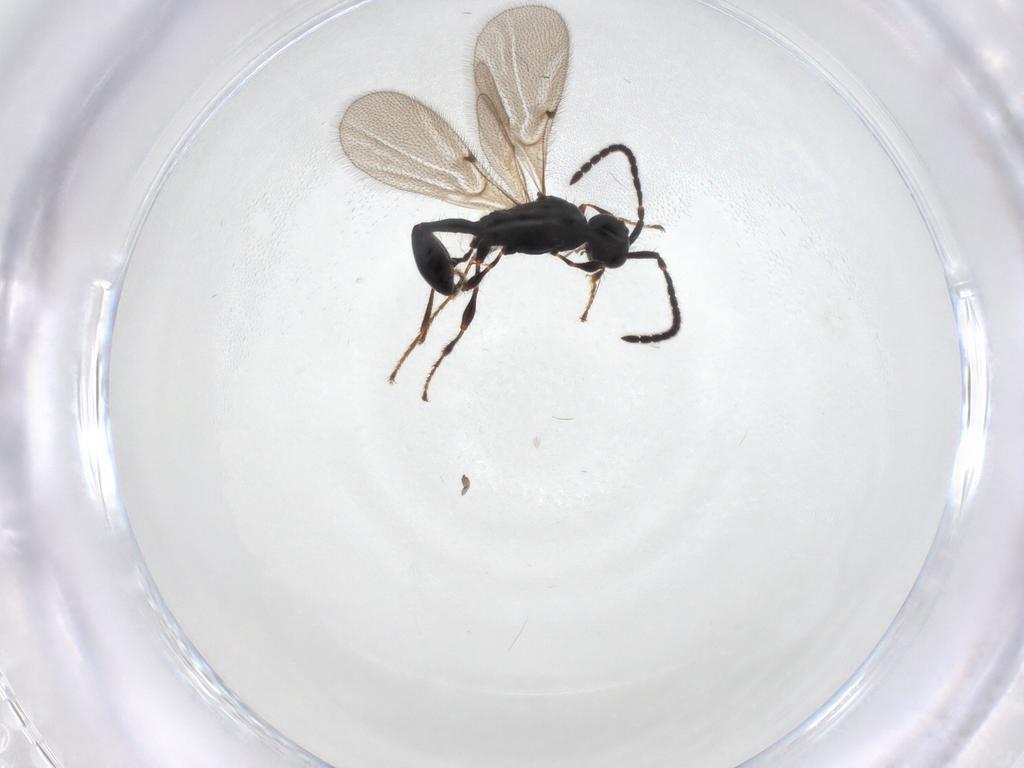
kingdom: Animalia
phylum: Arthropoda
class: Insecta
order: Hymenoptera
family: Diapriidae
